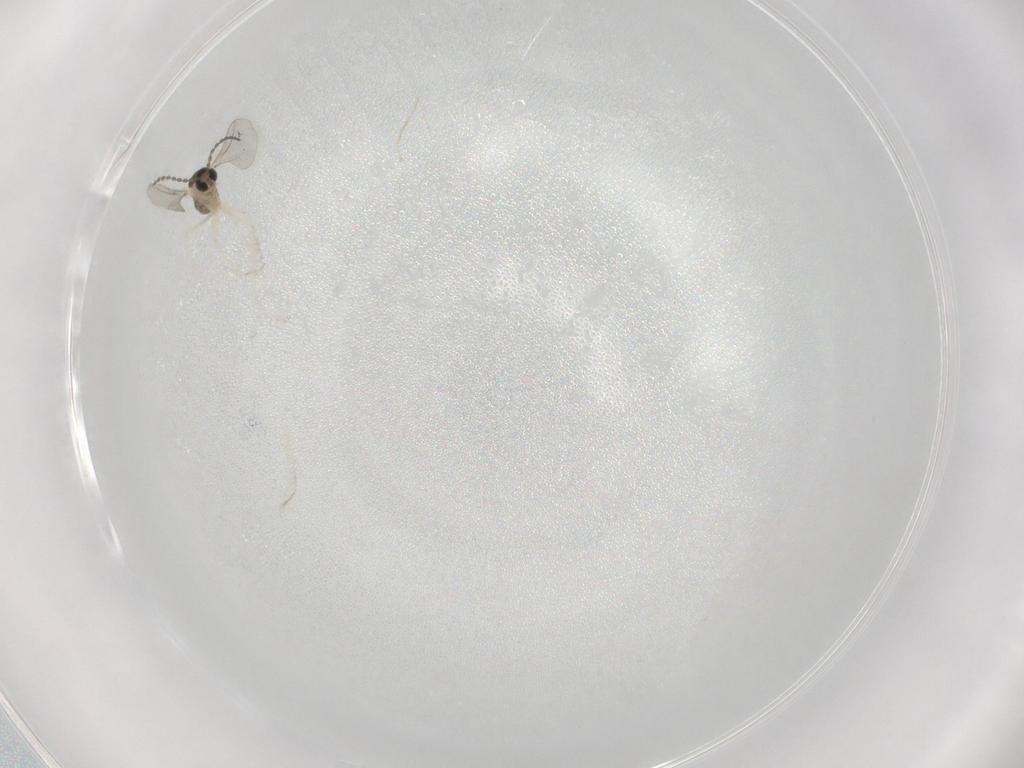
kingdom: Animalia
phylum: Arthropoda
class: Insecta
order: Diptera
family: Cecidomyiidae
